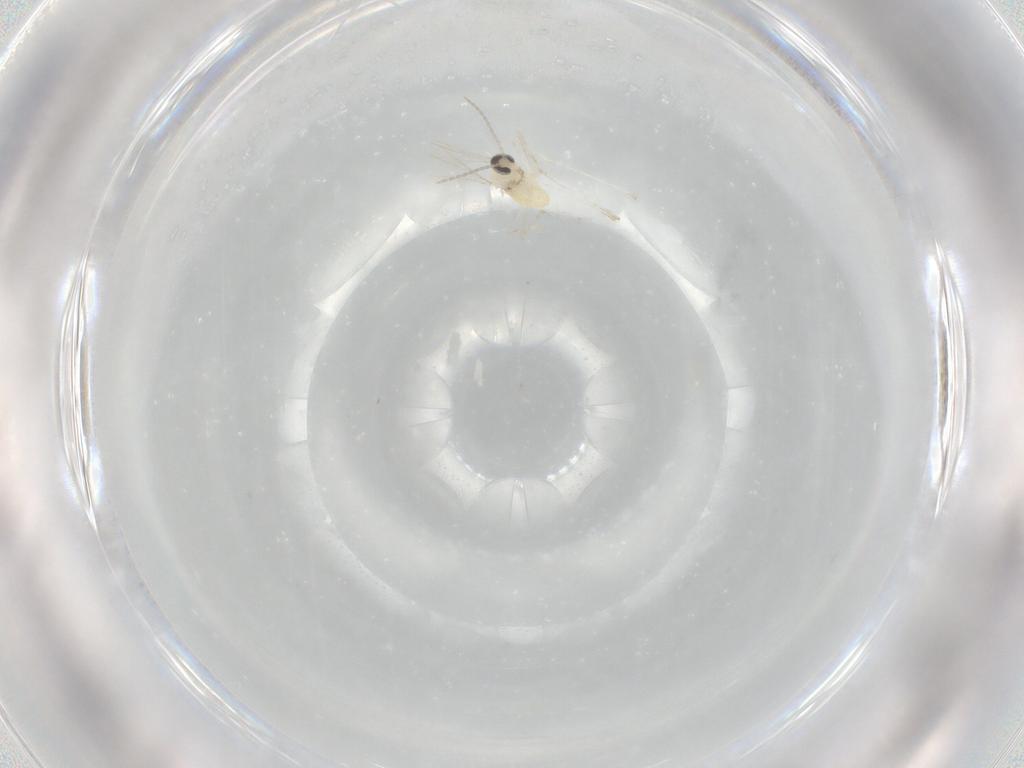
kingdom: Animalia
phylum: Arthropoda
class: Insecta
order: Diptera
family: Cecidomyiidae
